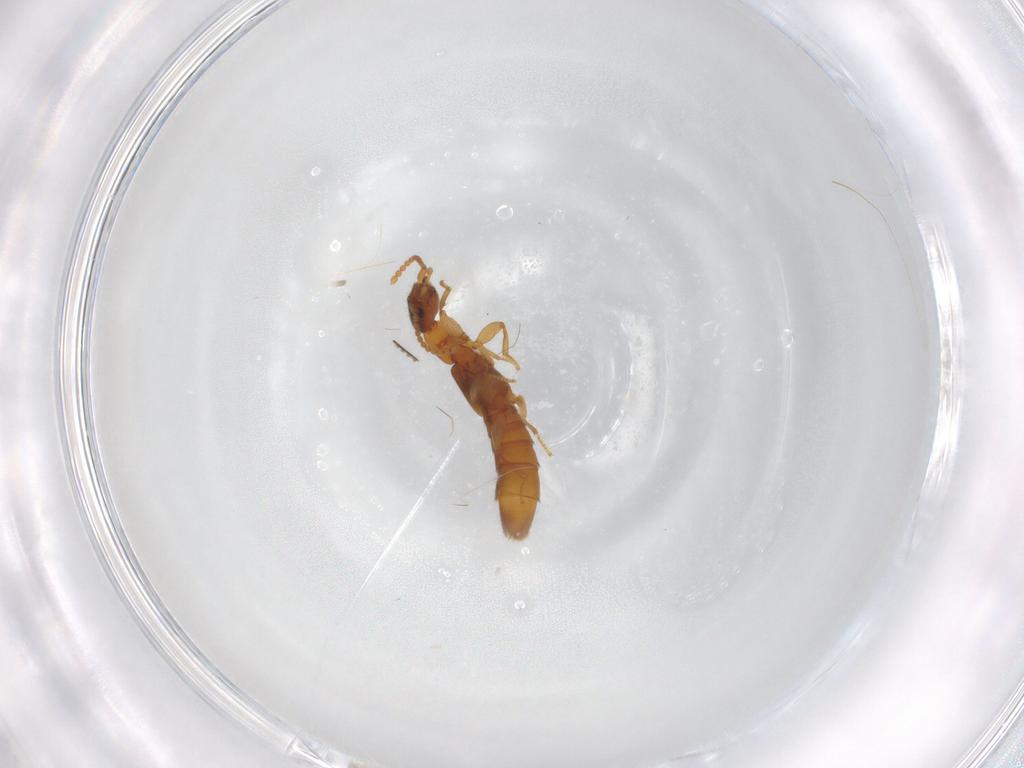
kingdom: Animalia
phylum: Arthropoda
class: Insecta
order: Coleoptera
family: Staphylinidae
